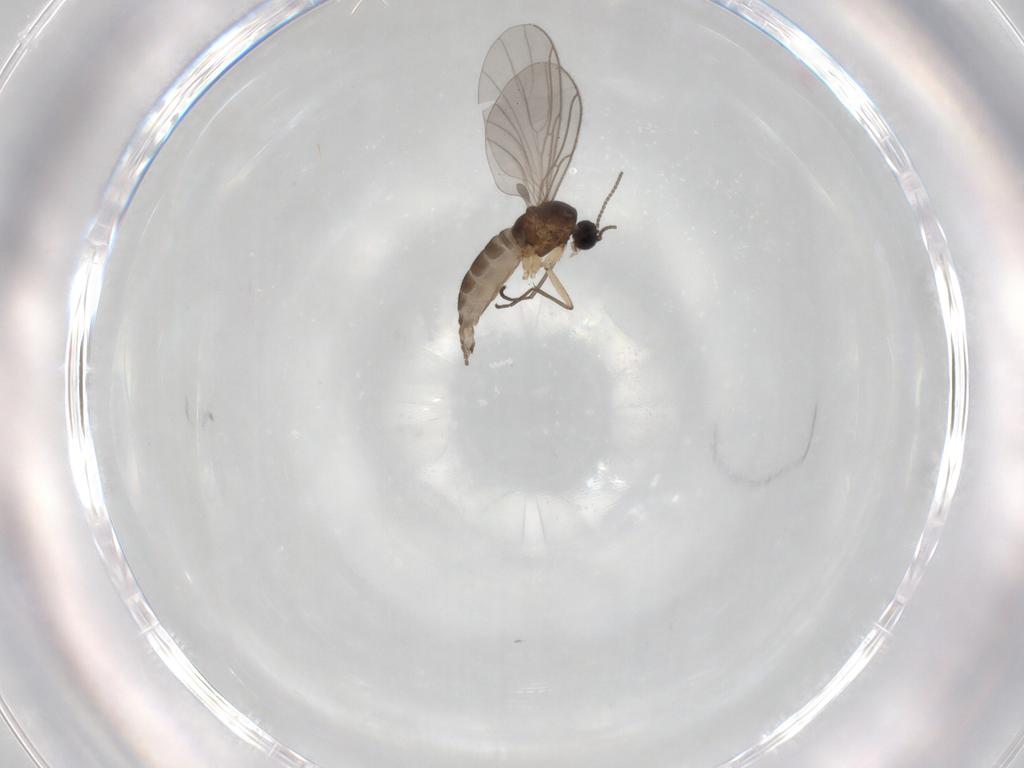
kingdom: Animalia
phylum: Arthropoda
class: Insecta
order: Diptera
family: Sciaridae
